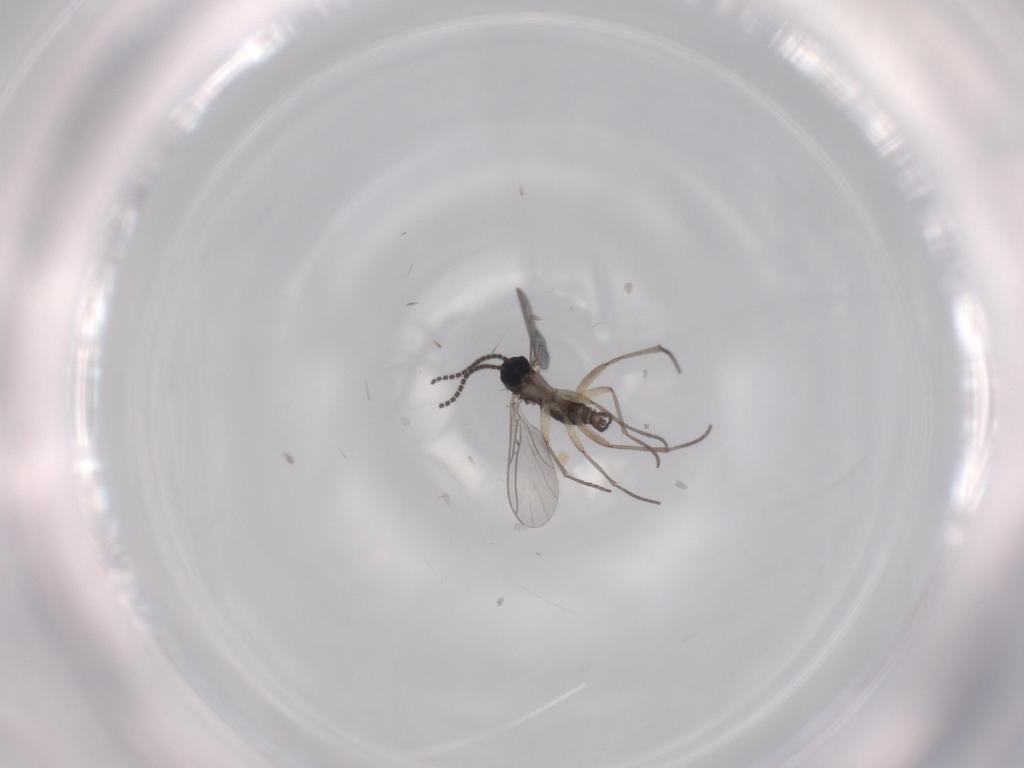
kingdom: Animalia
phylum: Arthropoda
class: Insecta
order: Diptera
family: Sciaridae
